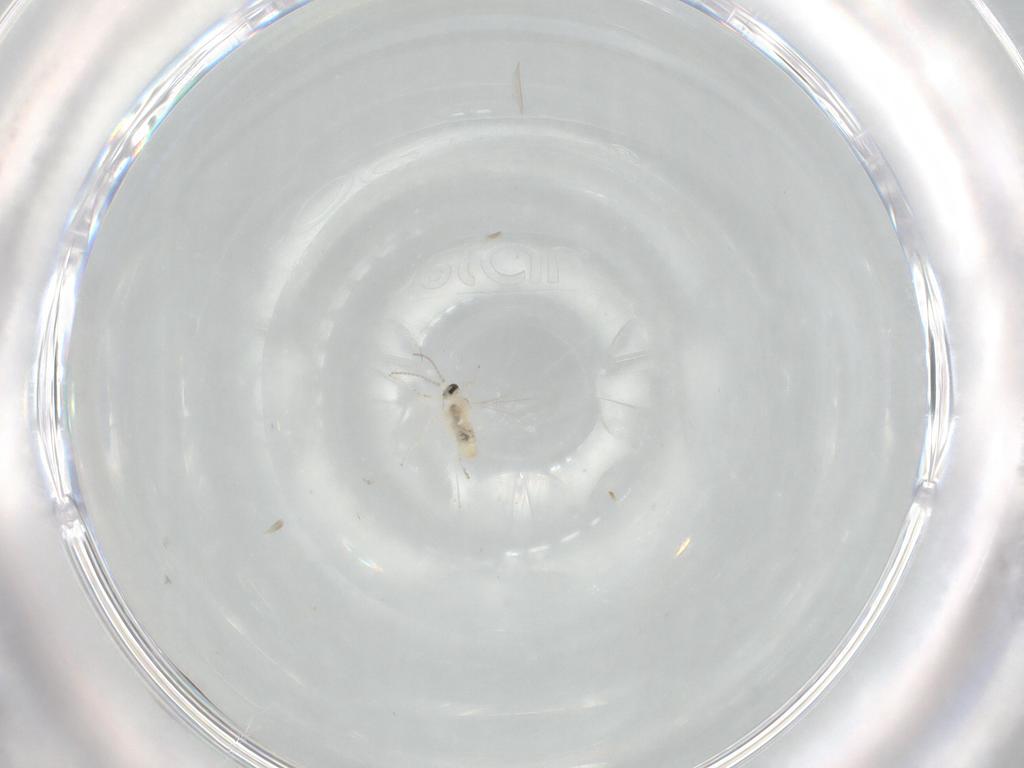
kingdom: Animalia
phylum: Arthropoda
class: Insecta
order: Diptera
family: Cecidomyiidae
